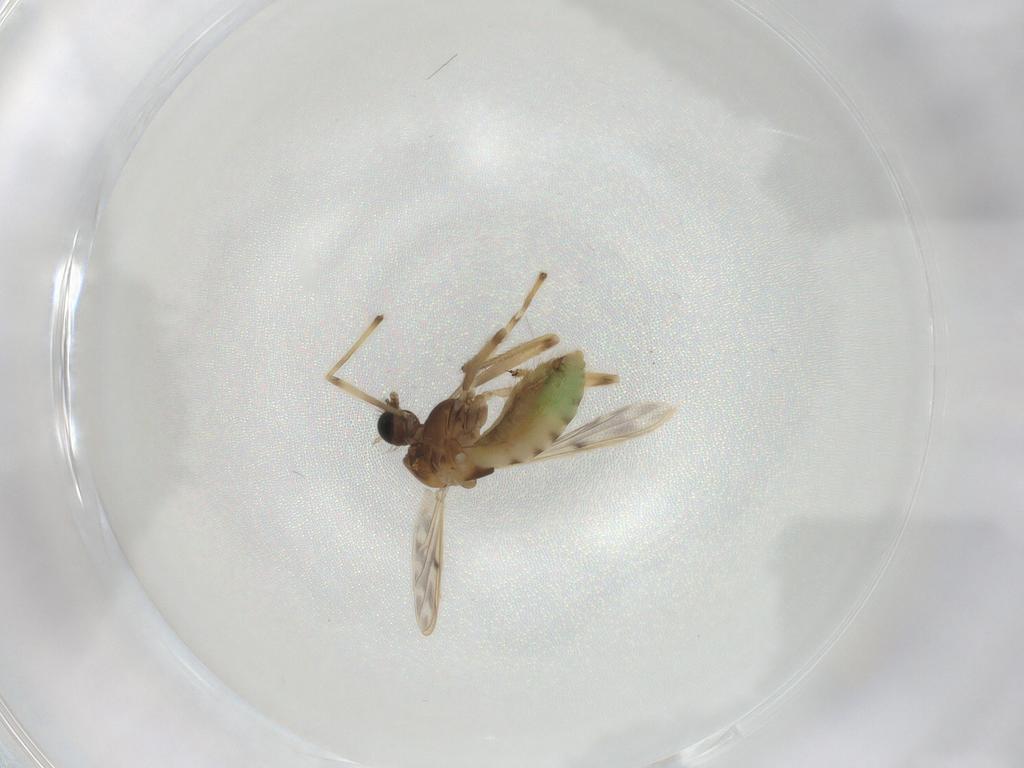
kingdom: Animalia
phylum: Arthropoda
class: Insecta
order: Diptera
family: Chironomidae
